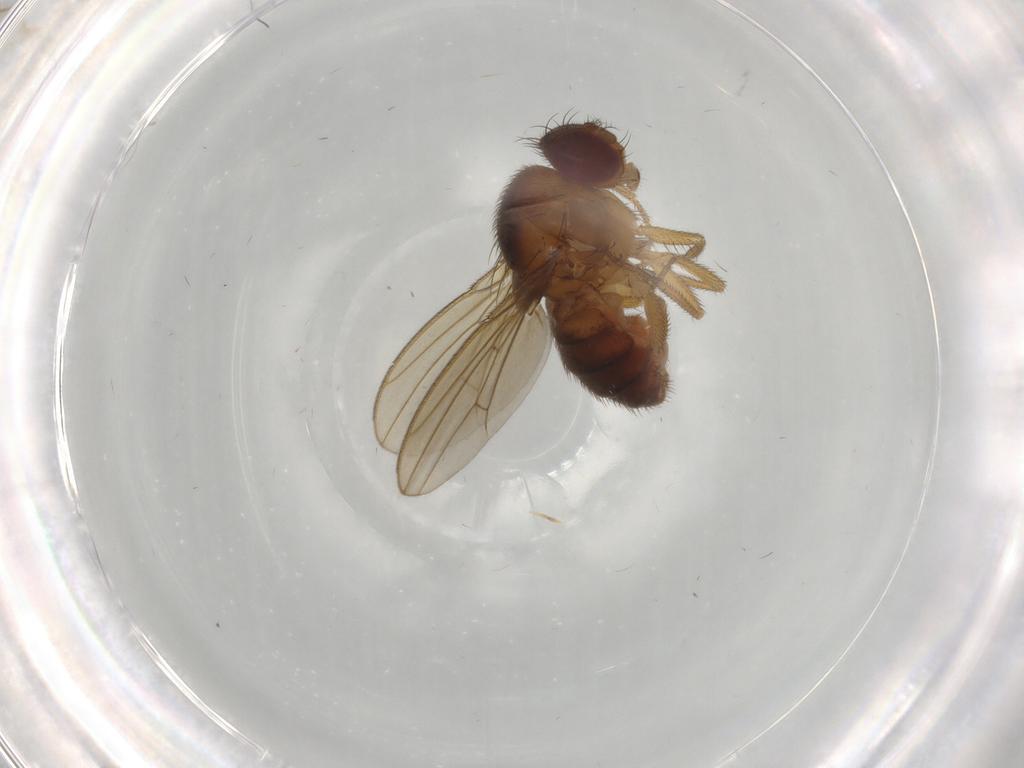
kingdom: Animalia
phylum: Arthropoda
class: Insecta
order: Diptera
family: Drosophilidae
